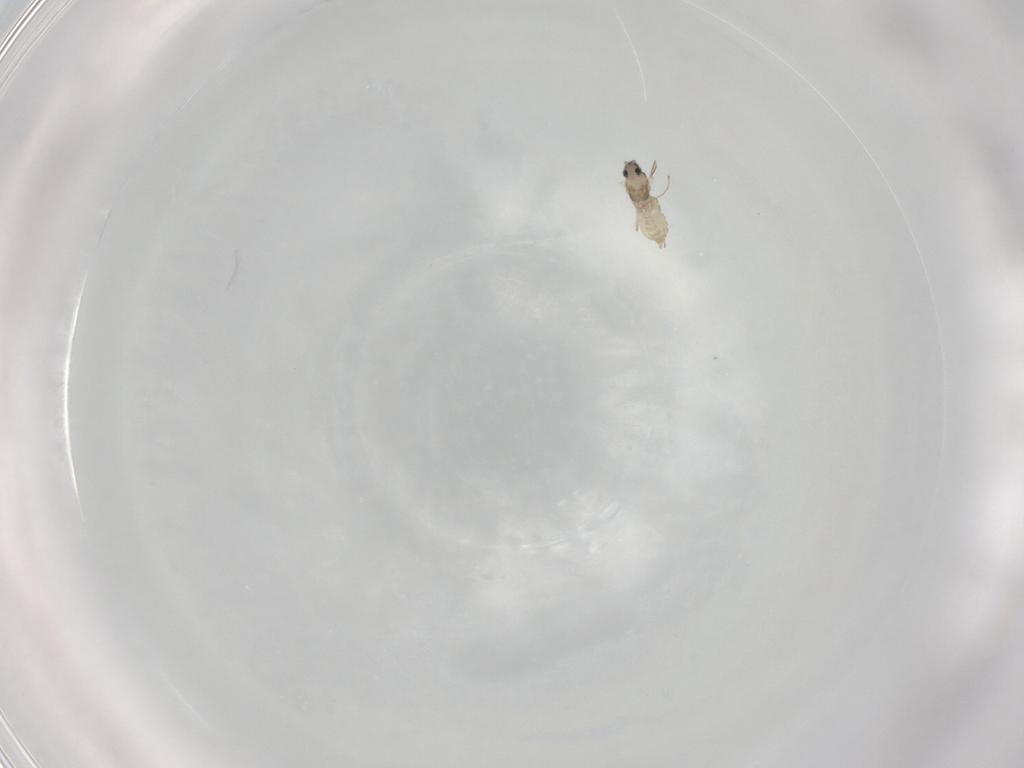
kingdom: Animalia
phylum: Arthropoda
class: Insecta
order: Diptera
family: Cecidomyiidae
